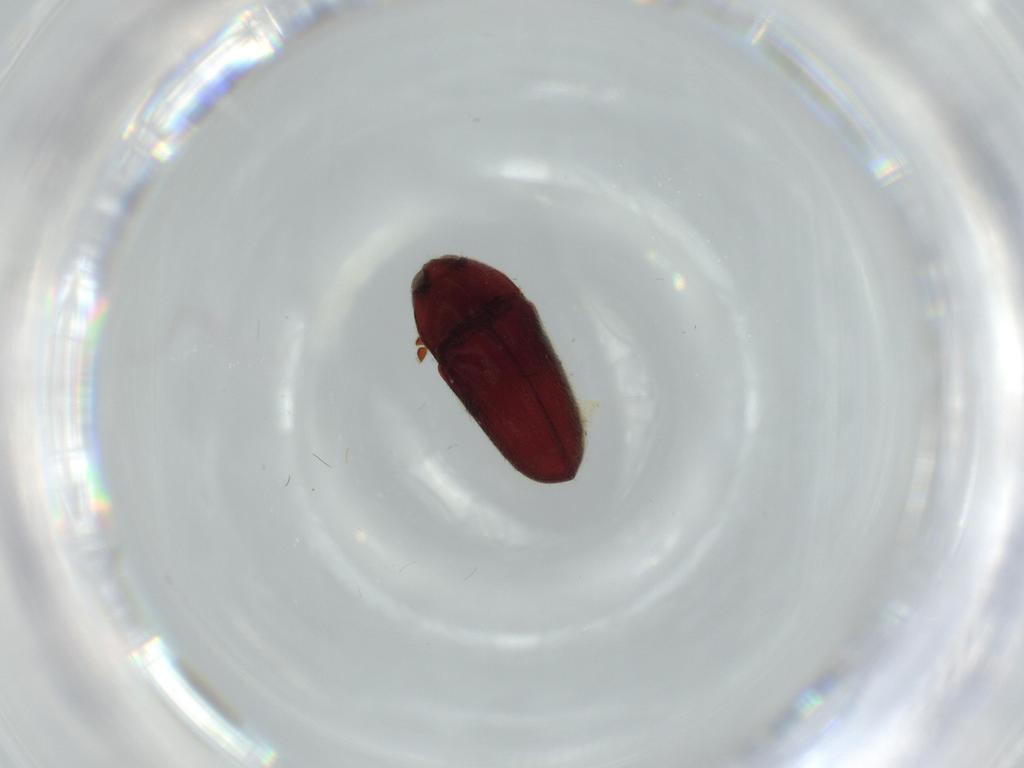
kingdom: Animalia
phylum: Arthropoda
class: Insecta
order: Coleoptera
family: Throscidae
